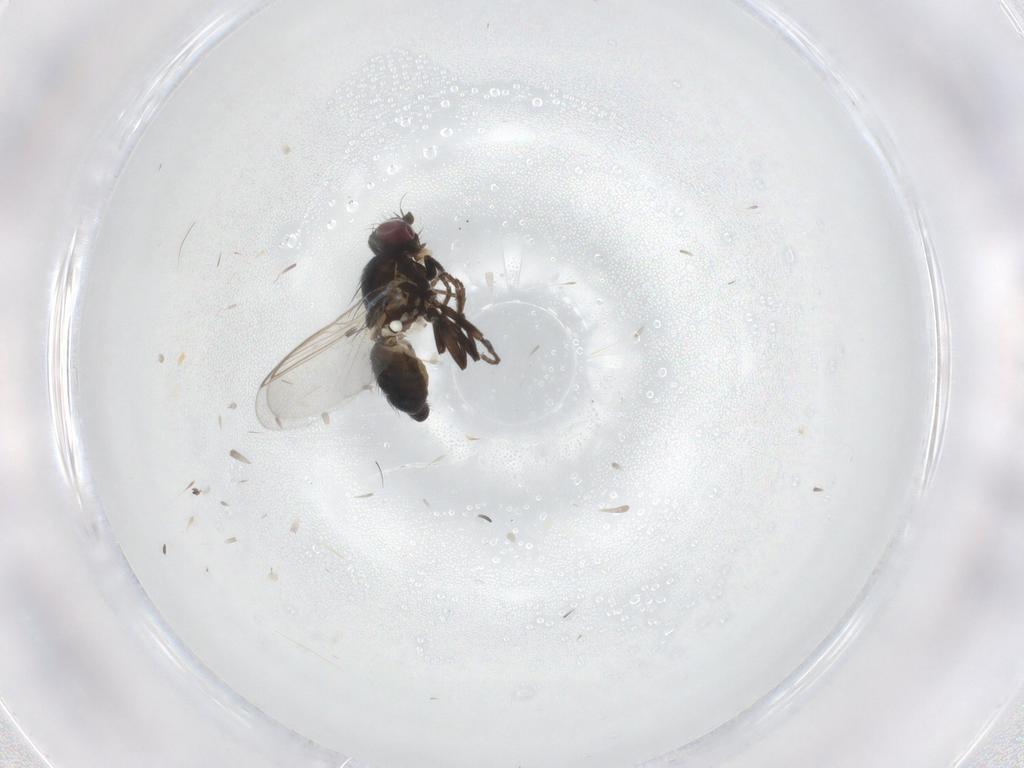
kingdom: Animalia
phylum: Arthropoda
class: Insecta
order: Diptera
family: Agromyzidae
